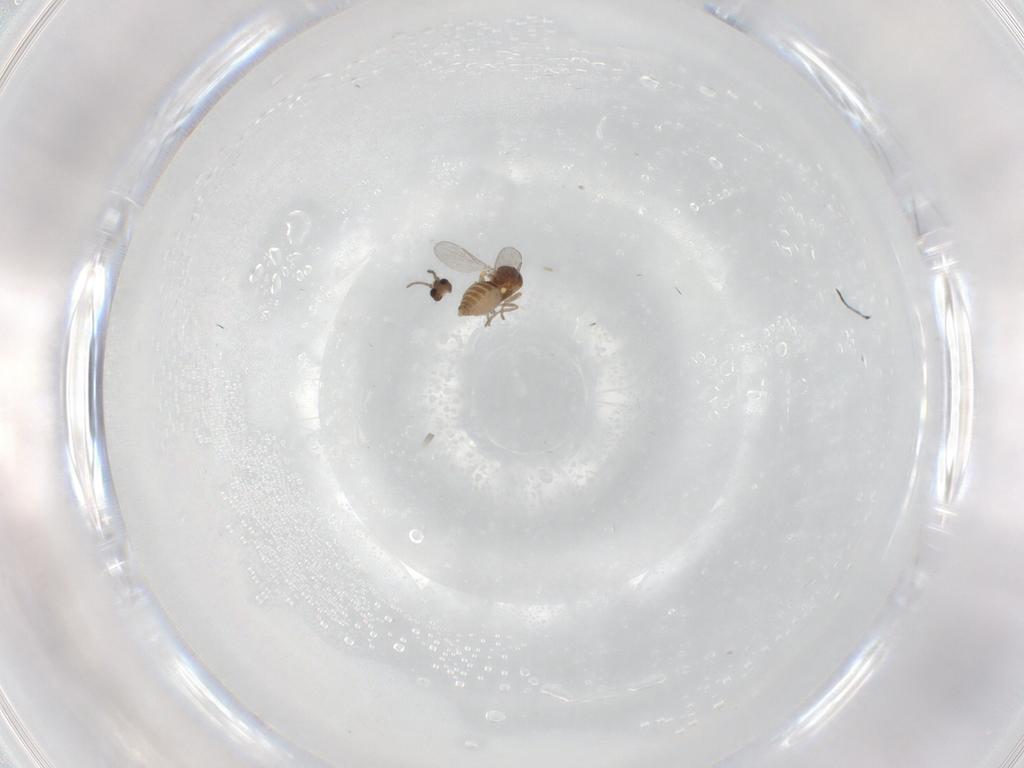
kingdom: Animalia
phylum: Arthropoda
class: Insecta
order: Diptera
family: Ceratopogonidae
